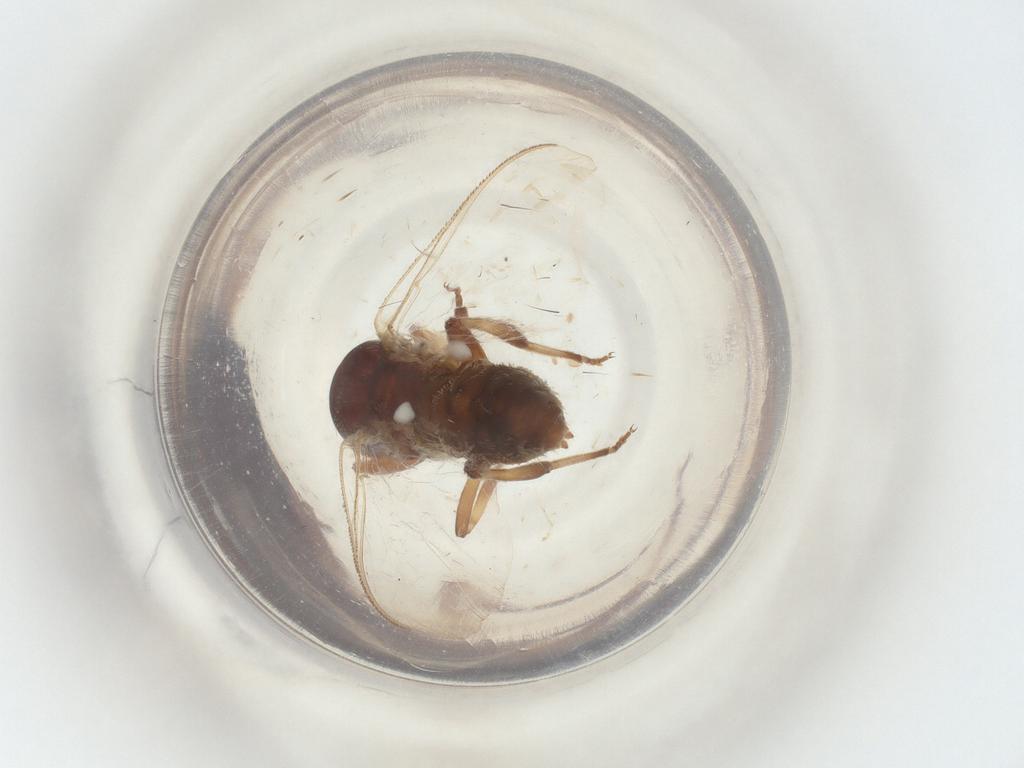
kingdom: Animalia
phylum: Arthropoda
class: Insecta
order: Diptera
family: Simuliidae
